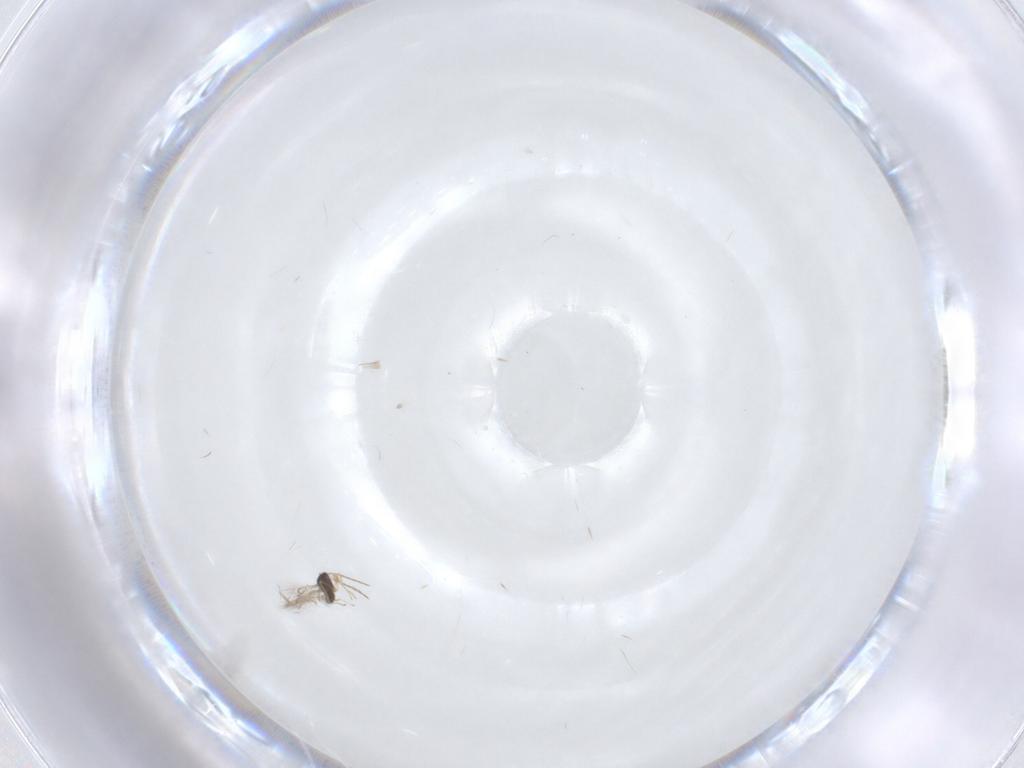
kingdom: Animalia
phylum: Arthropoda
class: Insecta
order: Hymenoptera
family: Mymaridae
